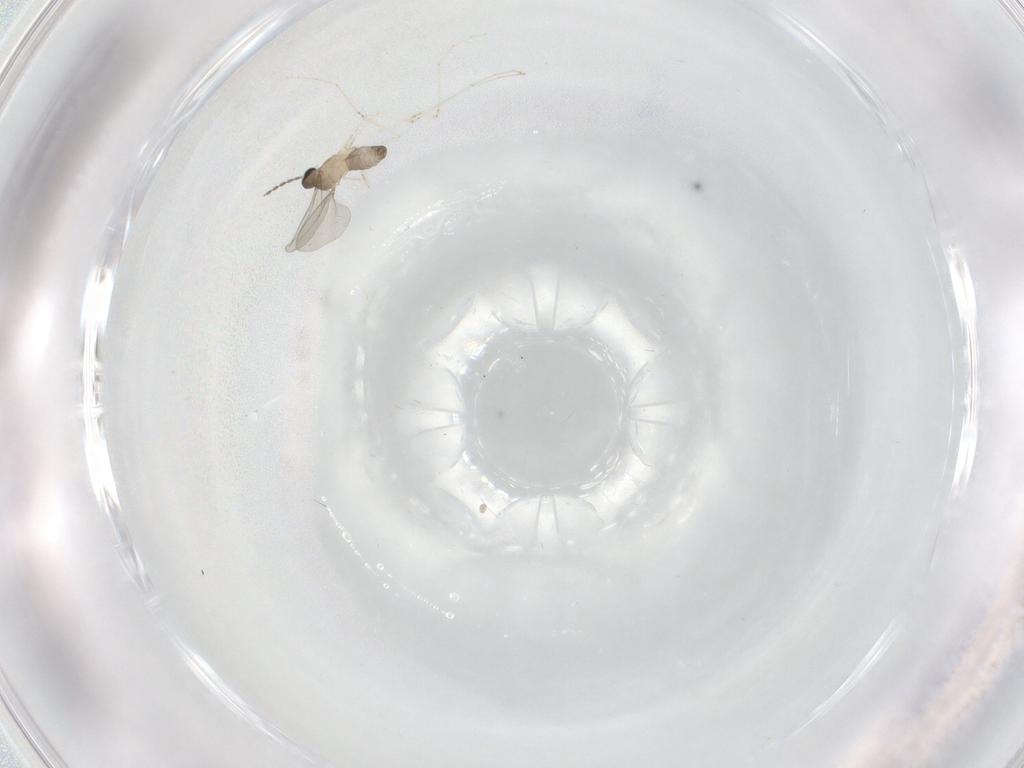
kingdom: Animalia
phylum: Arthropoda
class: Insecta
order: Diptera
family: Cecidomyiidae
